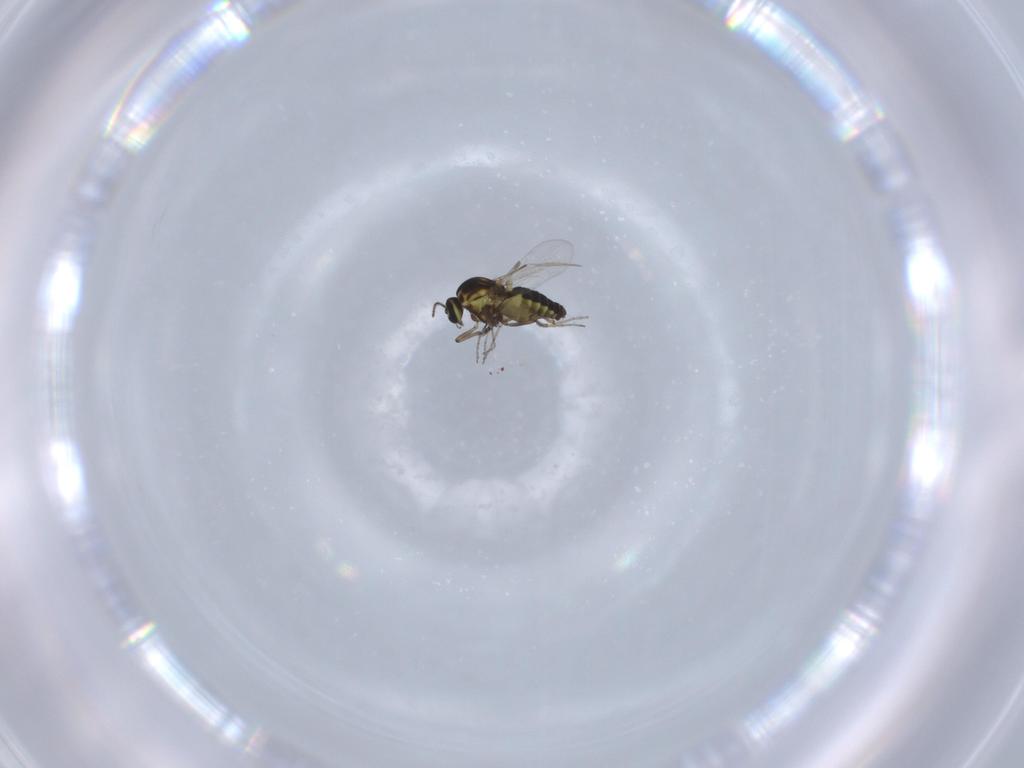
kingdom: Animalia
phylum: Arthropoda
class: Insecta
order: Diptera
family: Ceratopogonidae
